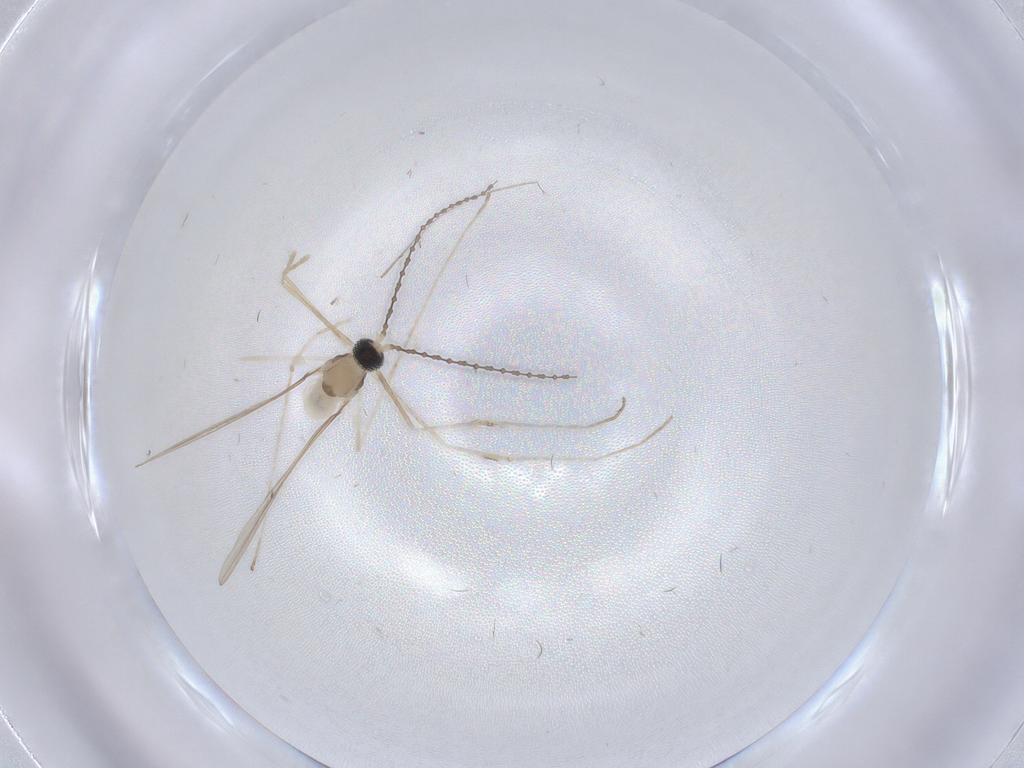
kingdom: Animalia
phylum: Arthropoda
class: Insecta
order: Diptera
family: Cecidomyiidae
